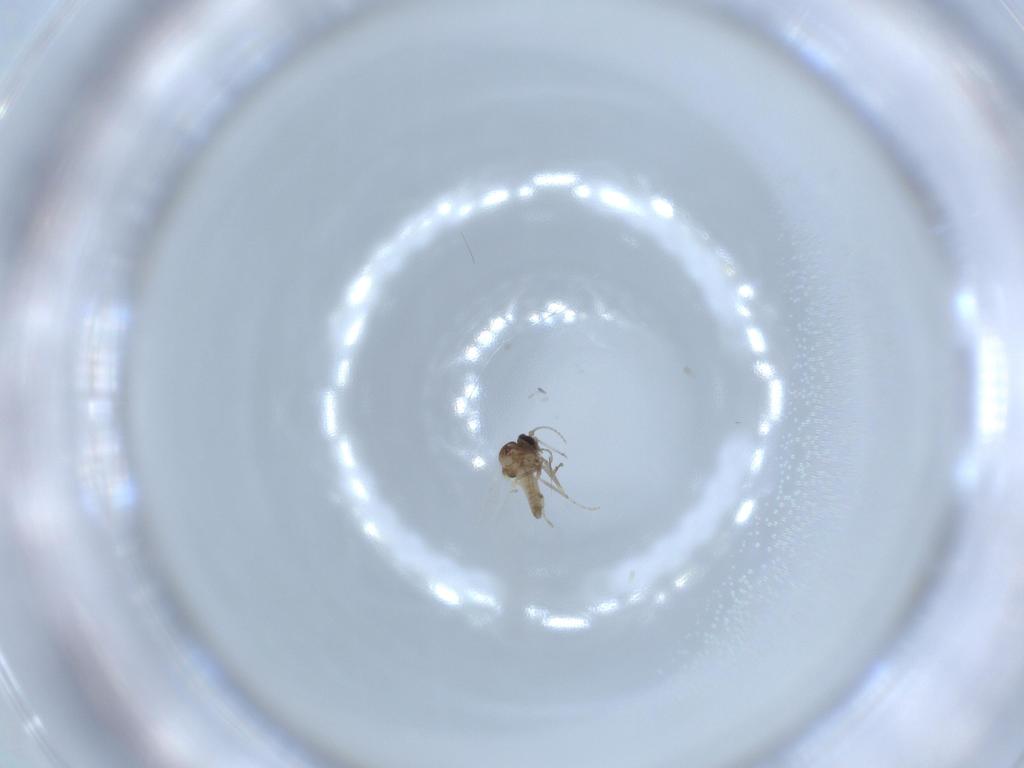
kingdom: Animalia
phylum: Arthropoda
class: Insecta
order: Diptera
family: Ceratopogonidae
